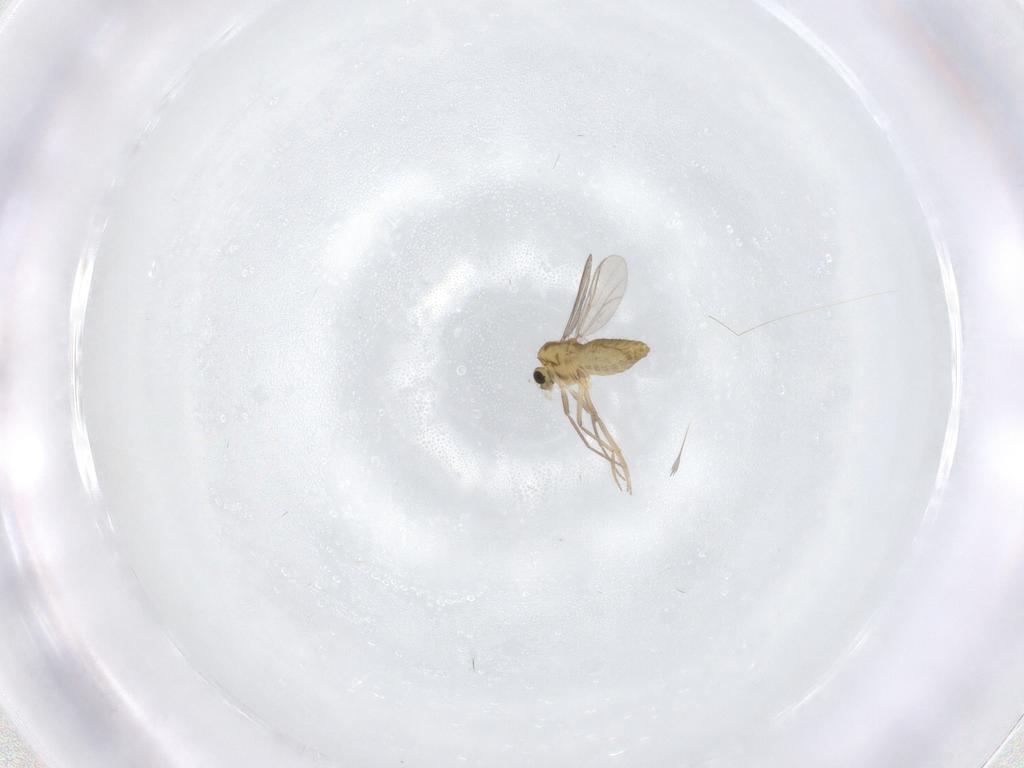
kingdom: Animalia
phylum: Arthropoda
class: Insecta
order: Diptera
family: Chironomidae
